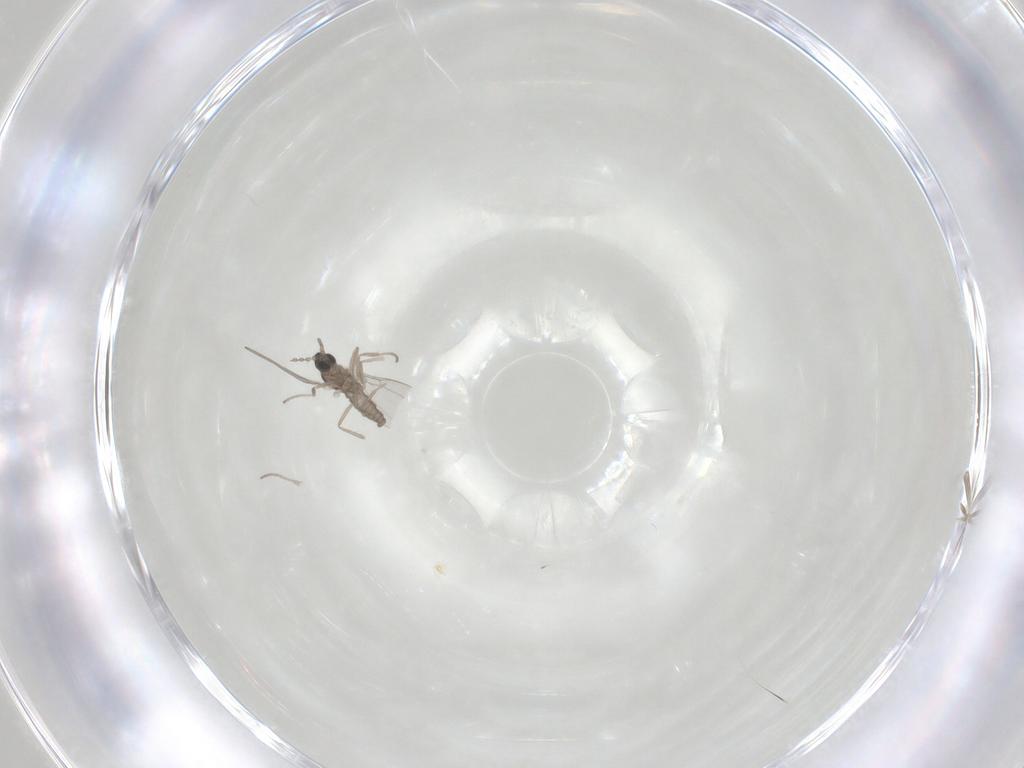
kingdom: Animalia
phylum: Arthropoda
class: Insecta
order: Diptera
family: Cecidomyiidae
